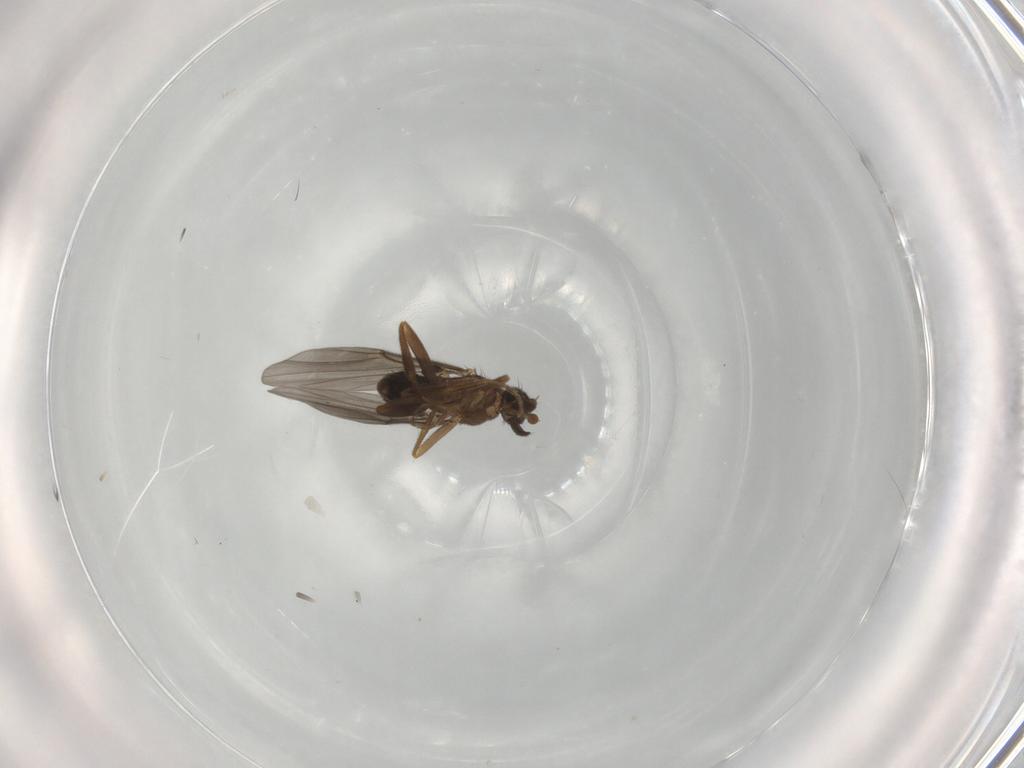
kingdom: Animalia
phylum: Arthropoda
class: Insecta
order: Diptera
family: Phoridae
